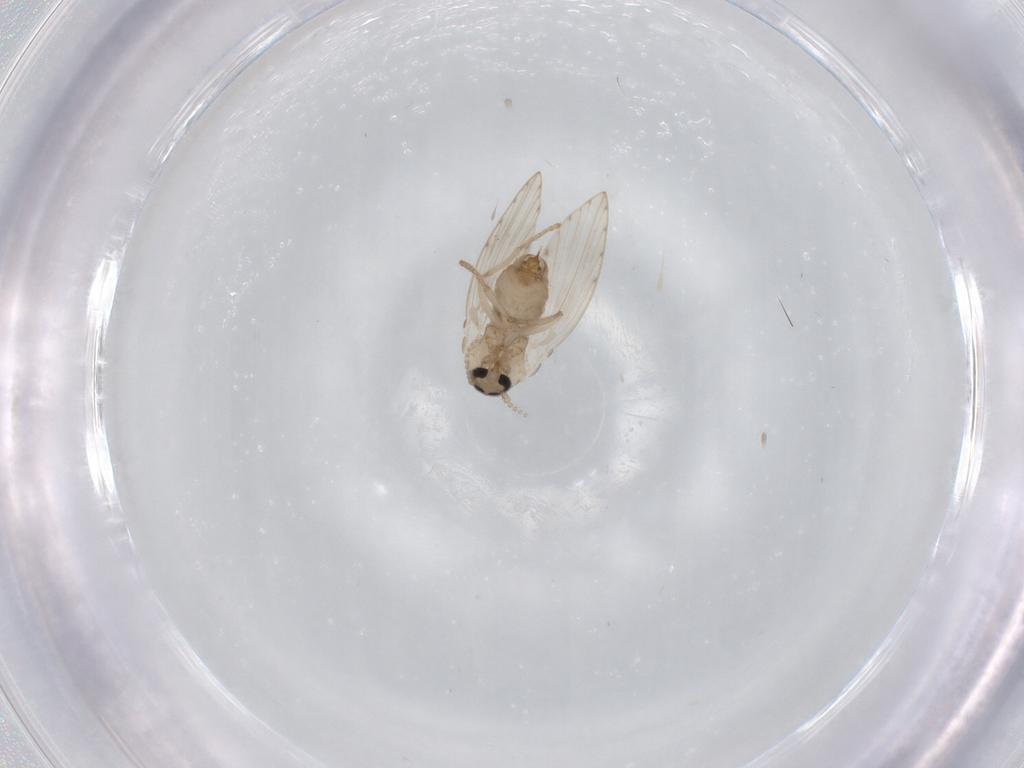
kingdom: Animalia
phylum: Arthropoda
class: Insecta
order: Diptera
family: Psychodidae
